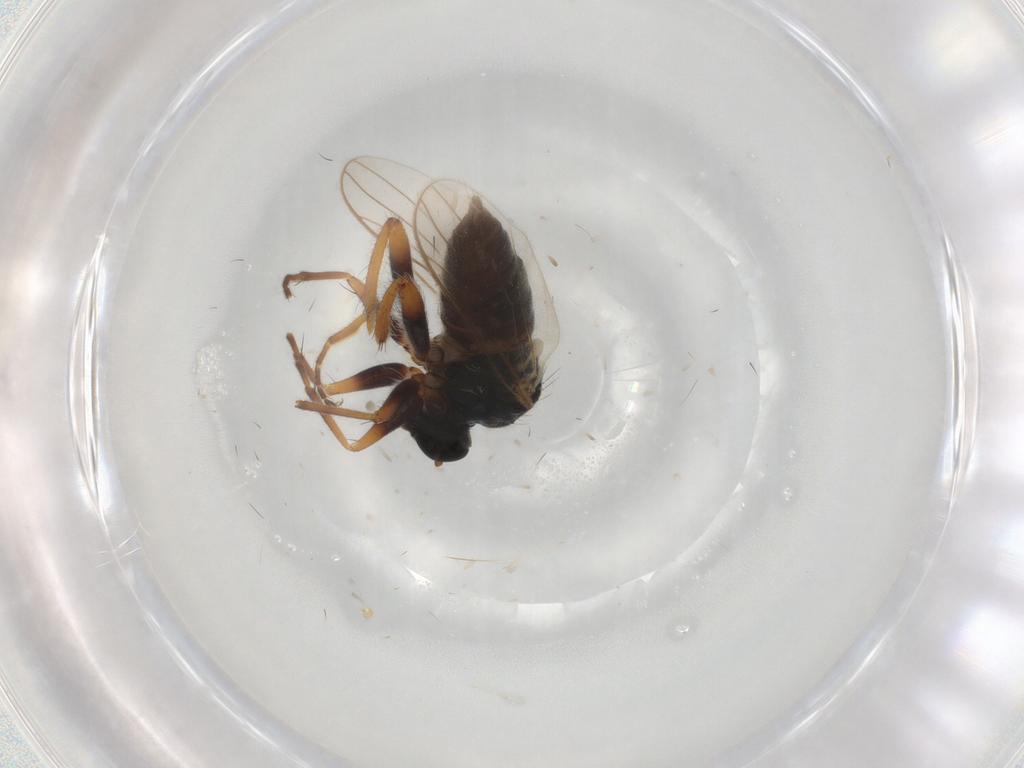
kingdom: Animalia
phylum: Arthropoda
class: Insecta
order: Diptera
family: Hybotidae
